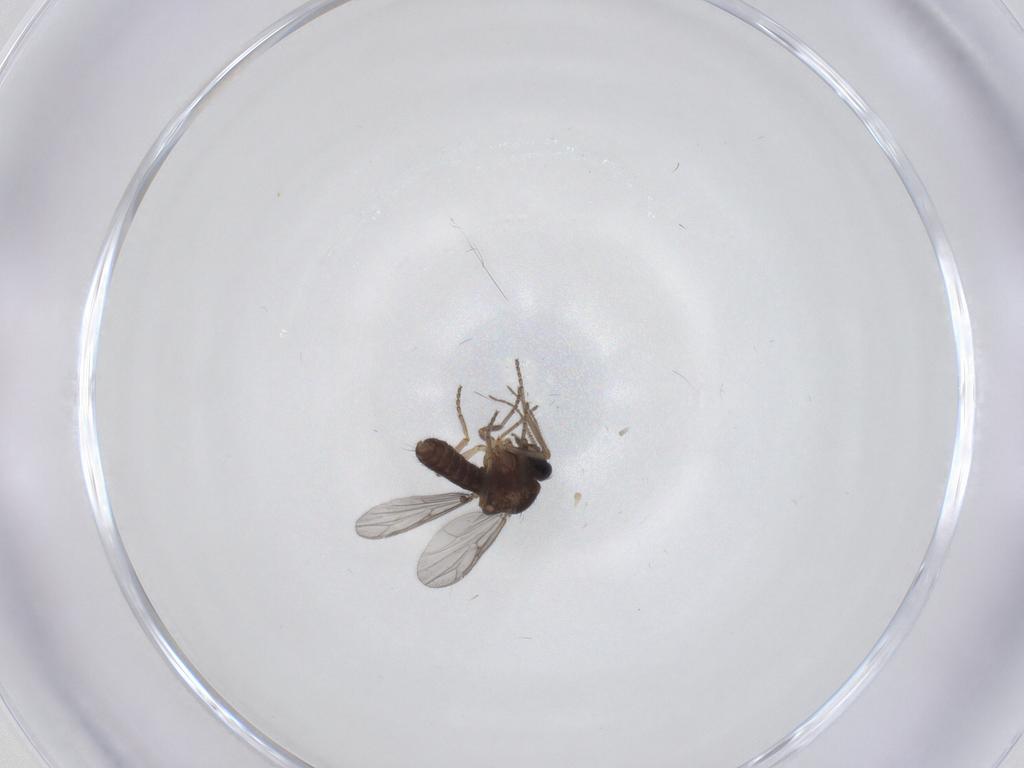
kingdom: Animalia
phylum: Arthropoda
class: Insecta
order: Diptera
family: Ceratopogonidae
